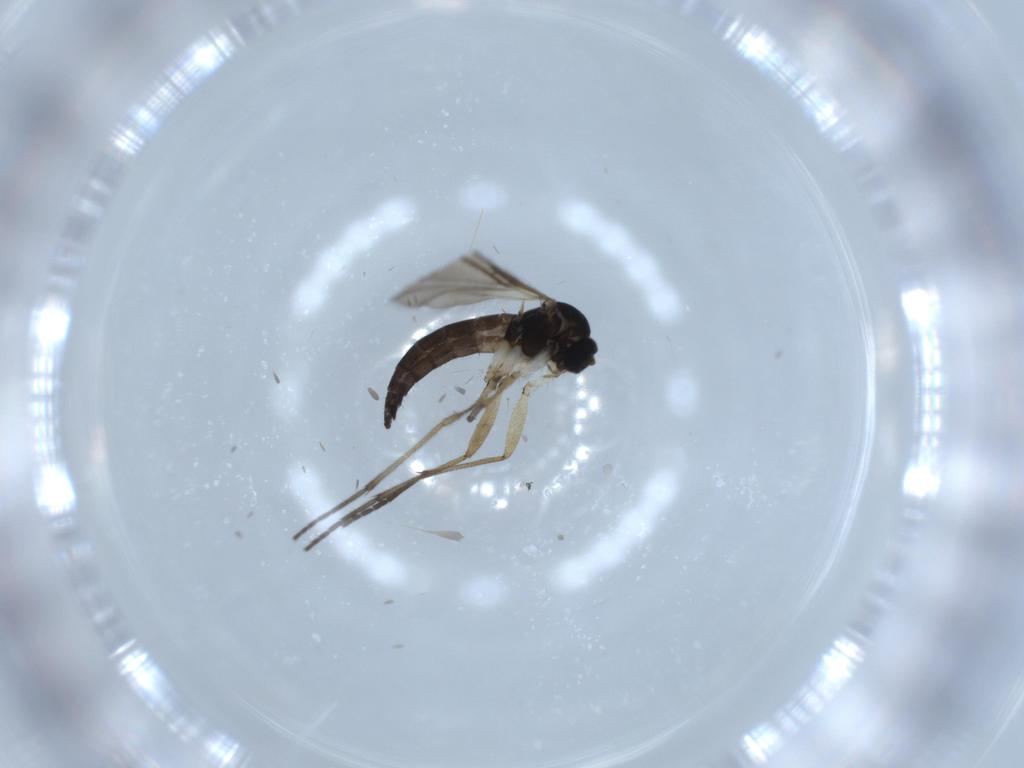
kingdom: Animalia
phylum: Arthropoda
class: Insecta
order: Diptera
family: Sciaridae
